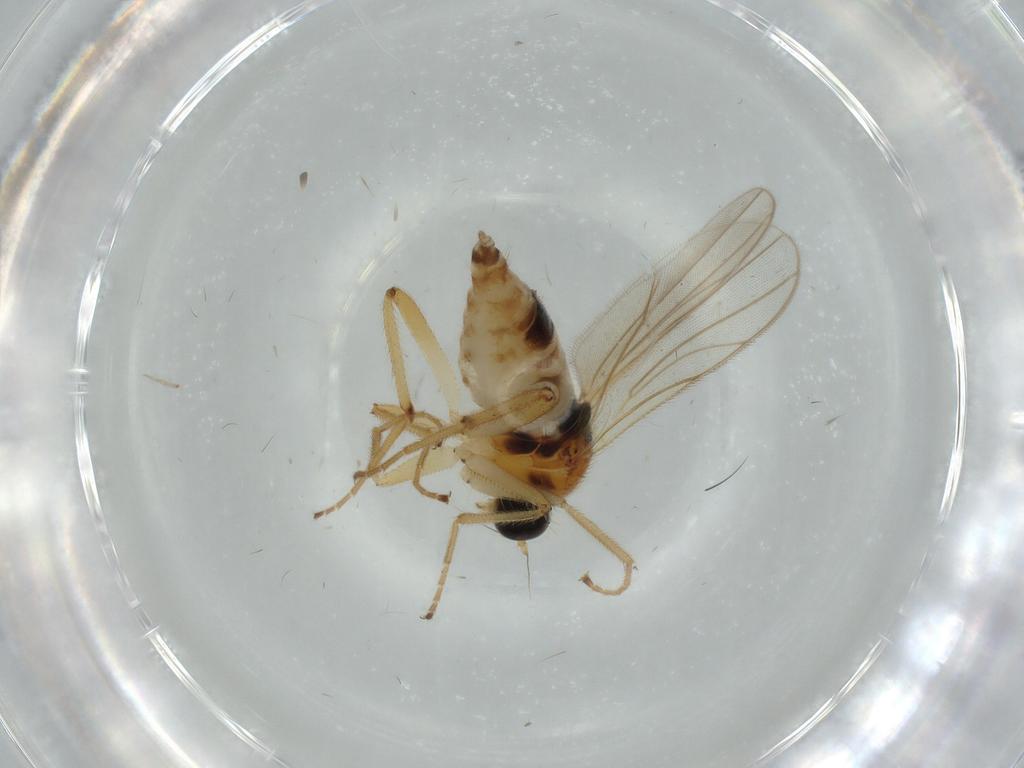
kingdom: Animalia
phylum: Arthropoda
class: Insecta
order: Diptera
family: Hybotidae
